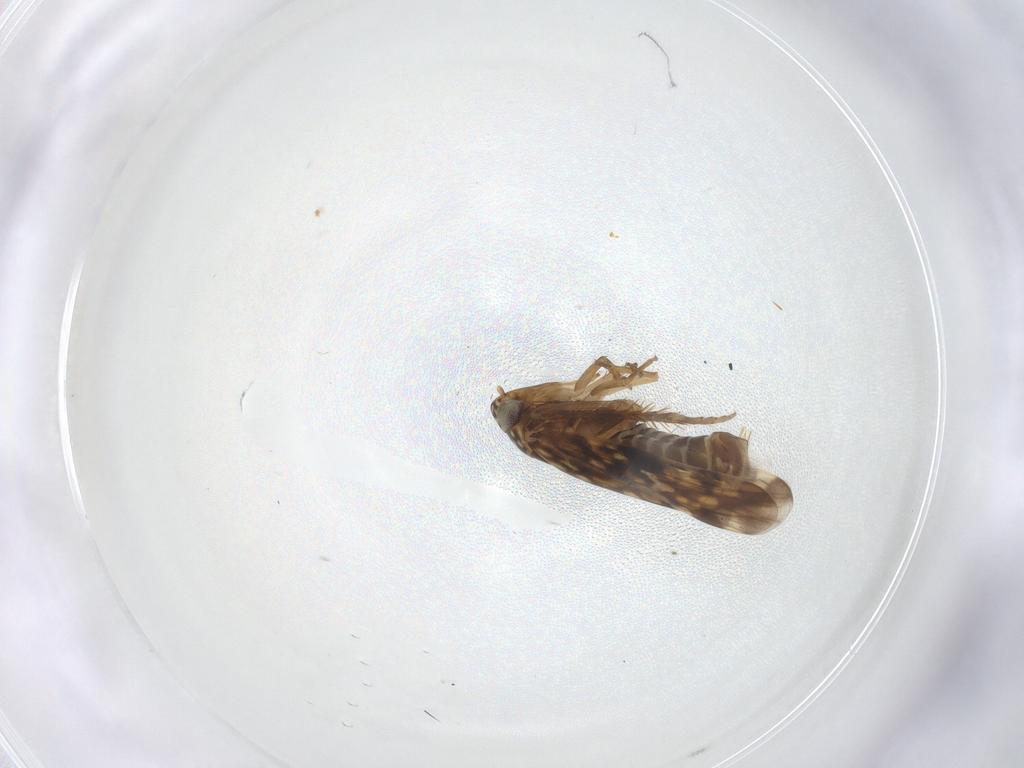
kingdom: Animalia
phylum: Arthropoda
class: Insecta
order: Hemiptera
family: Cicadellidae
